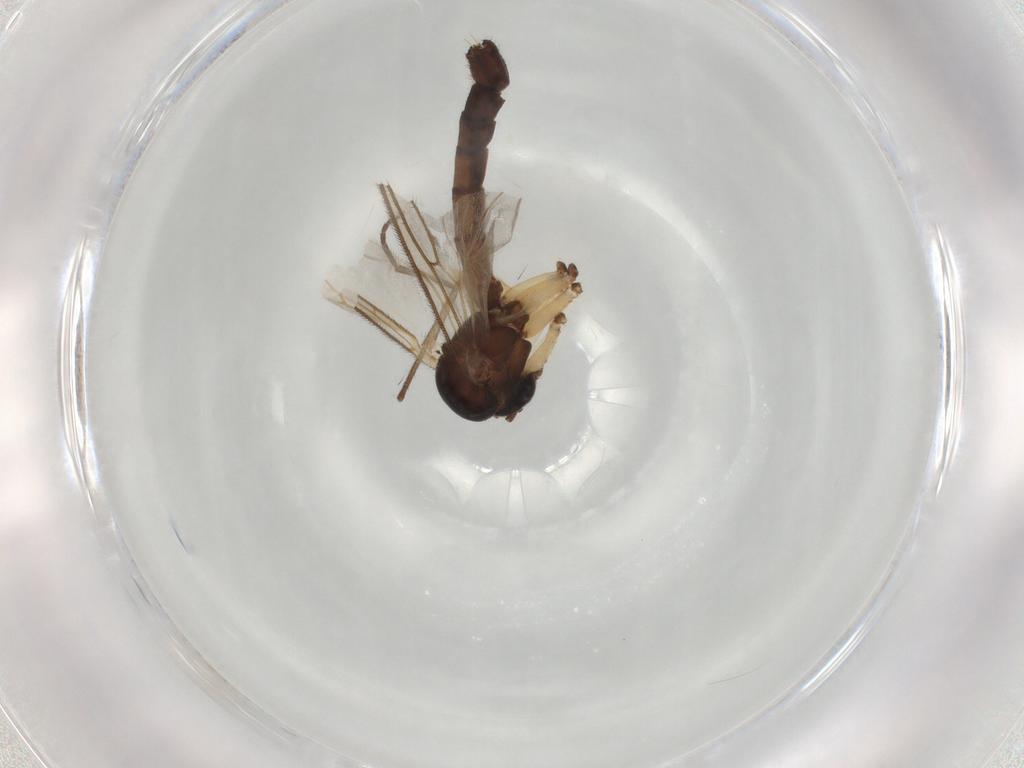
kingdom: Animalia
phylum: Arthropoda
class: Insecta
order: Diptera
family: Mycetophilidae
